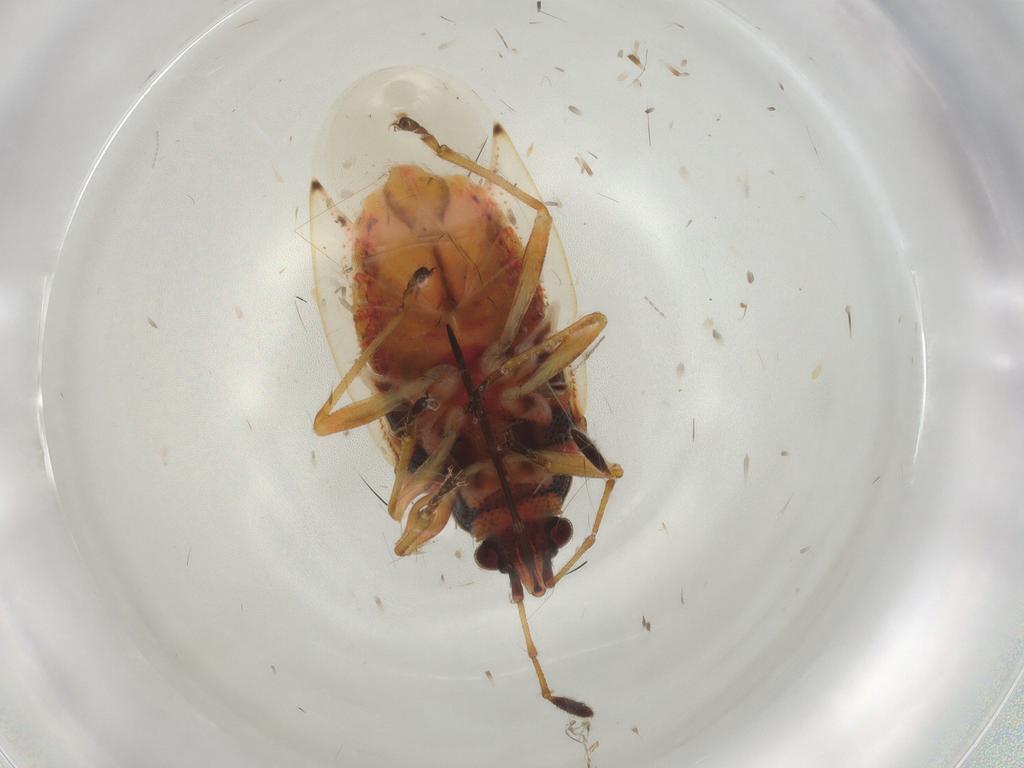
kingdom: Animalia
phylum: Arthropoda
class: Insecta
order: Hemiptera
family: Lygaeidae
